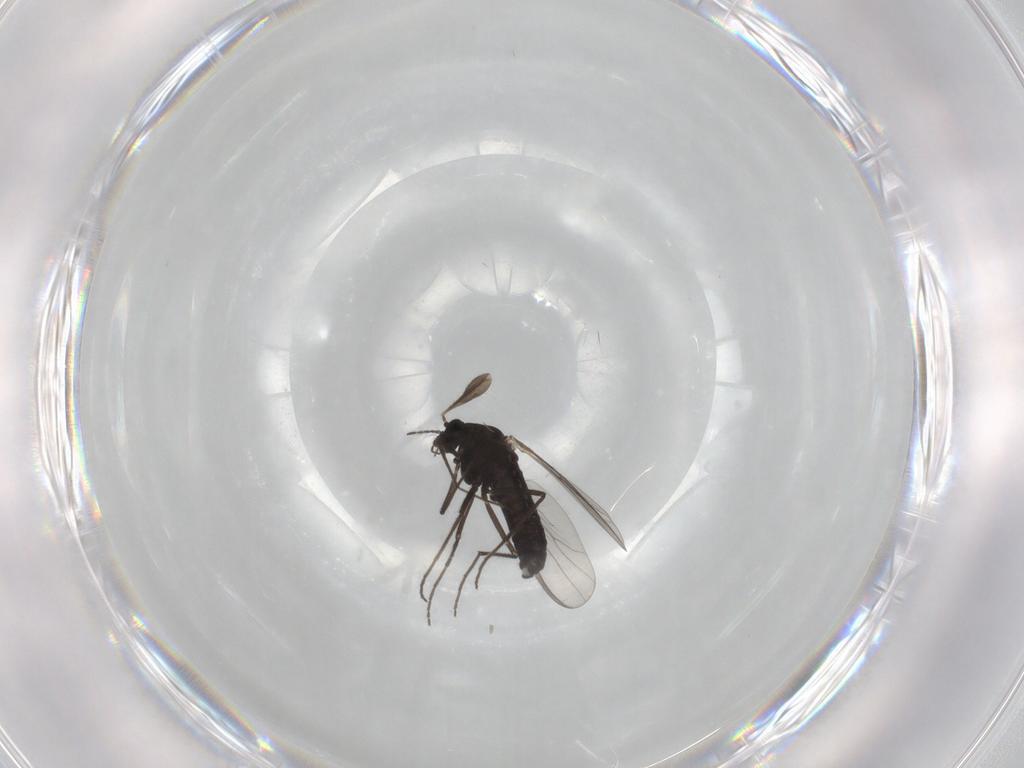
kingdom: Animalia
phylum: Arthropoda
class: Insecta
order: Diptera
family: Chironomidae
